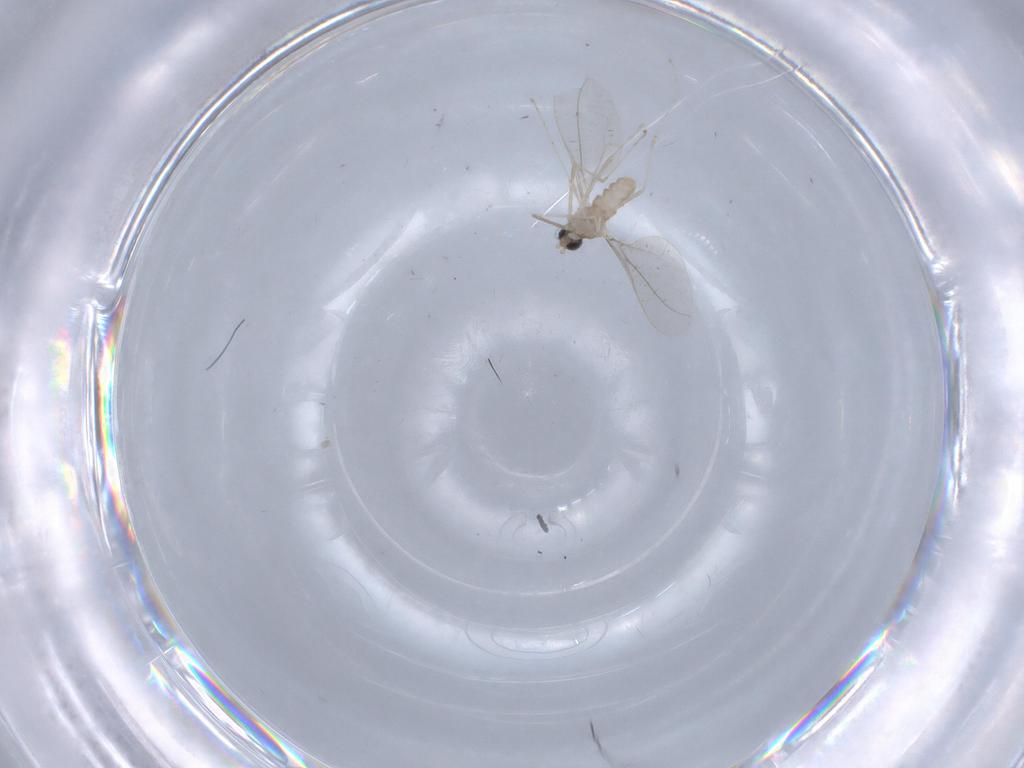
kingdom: Animalia
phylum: Arthropoda
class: Insecta
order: Diptera
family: Cecidomyiidae
